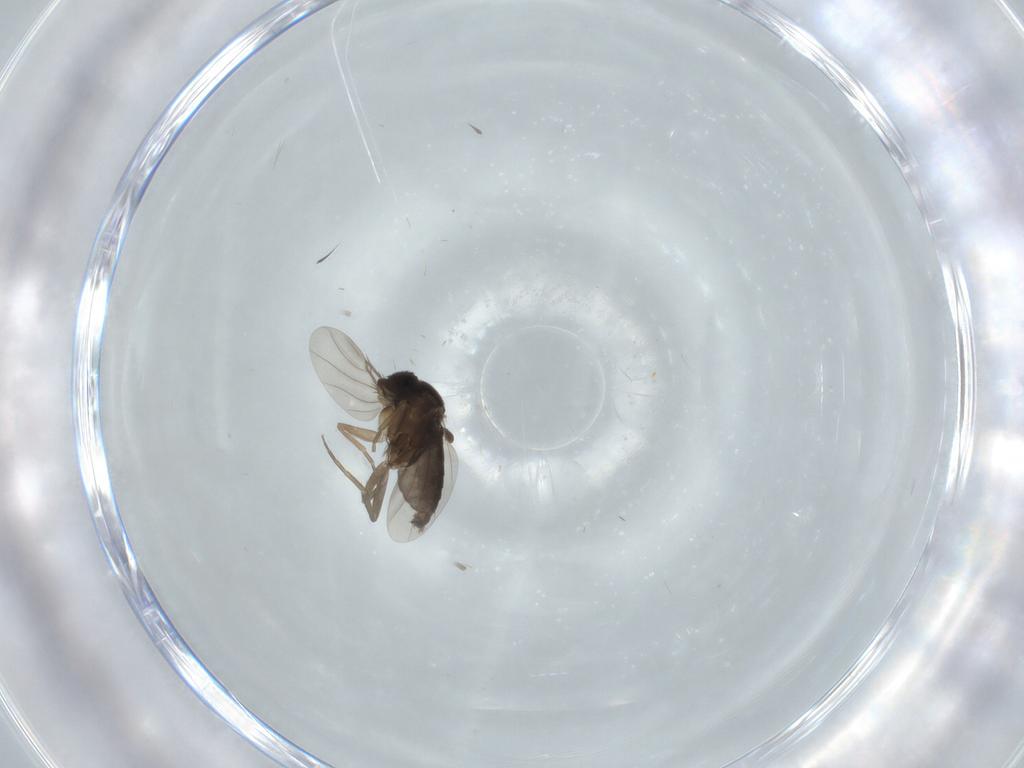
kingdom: Animalia
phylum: Arthropoda
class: Insecta
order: Diptera
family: Phoridae
